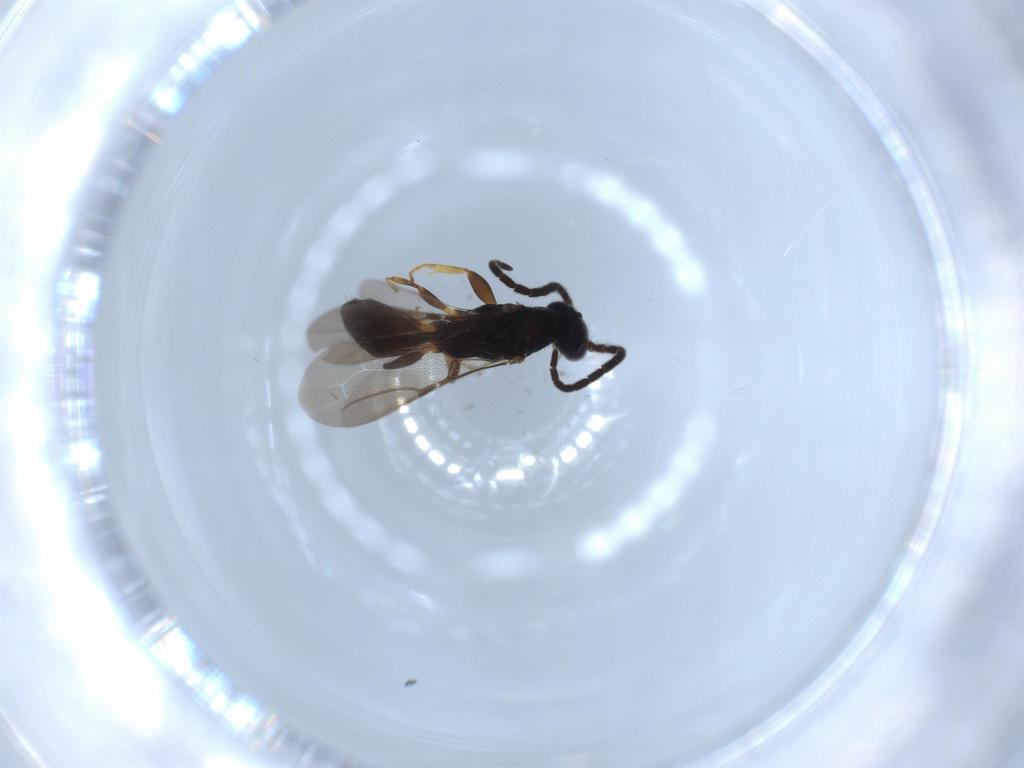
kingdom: Animalia
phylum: Arthropoda
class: Insecta
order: Hymenoptera
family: Bethylidae
